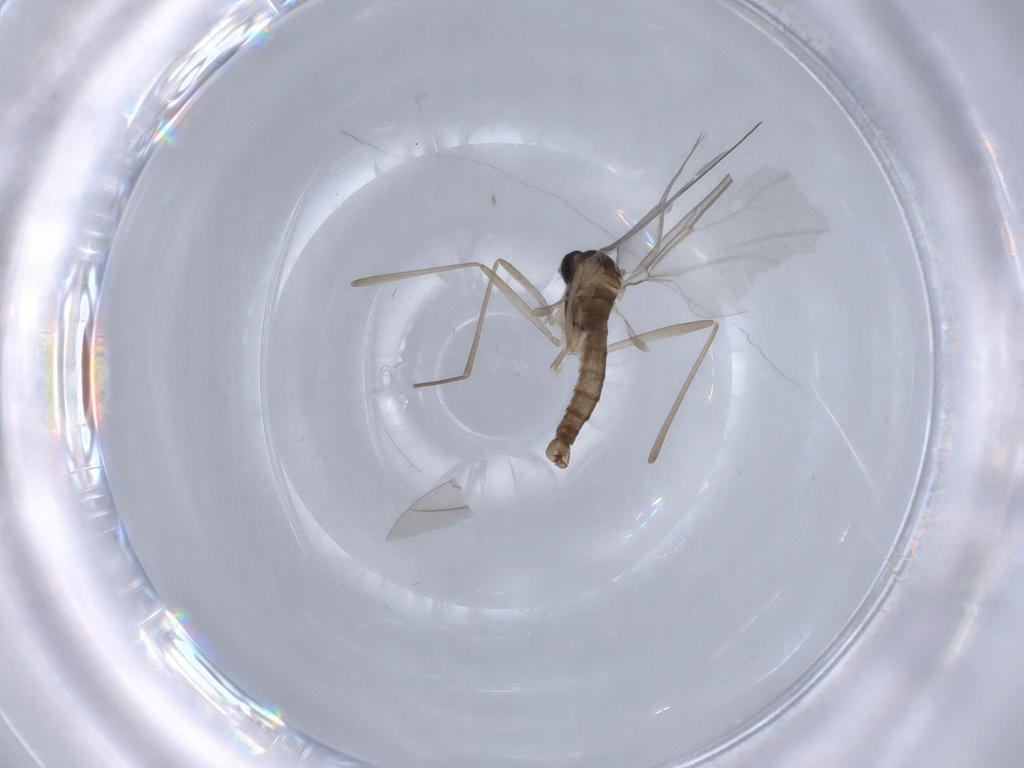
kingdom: Animalia
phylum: Arthropoda
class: Insecta
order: Diptera
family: Cecidomyiidae
